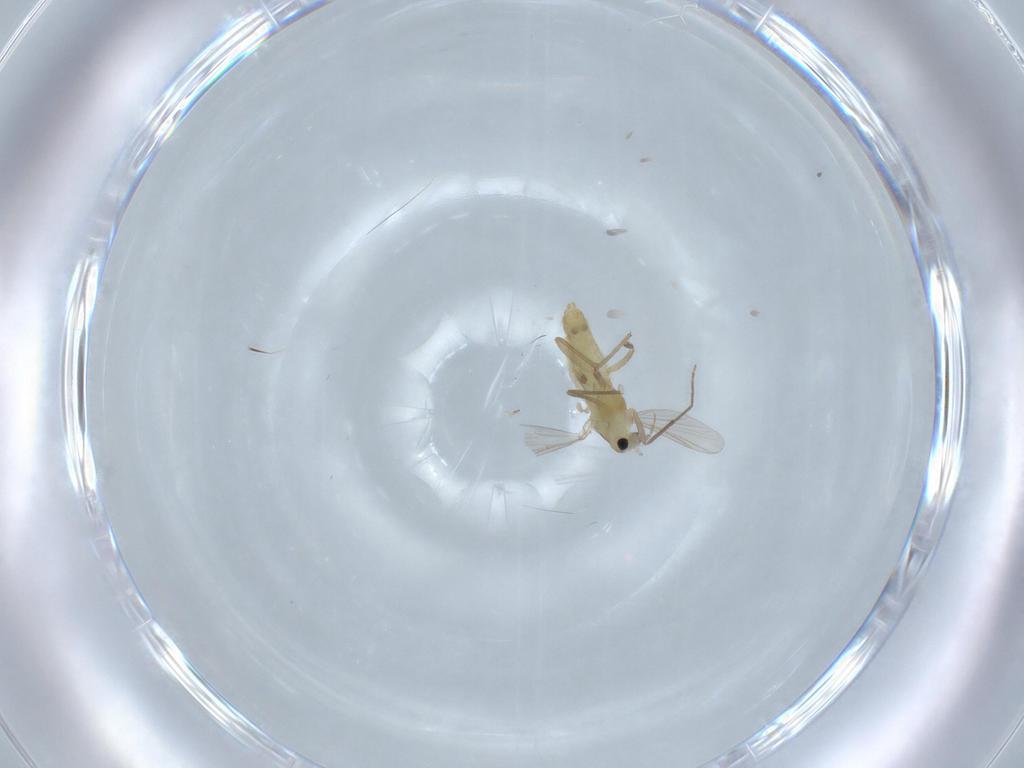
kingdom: Animalia
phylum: Arthropoda
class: Insecta
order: Diptera
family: Chironomidae
